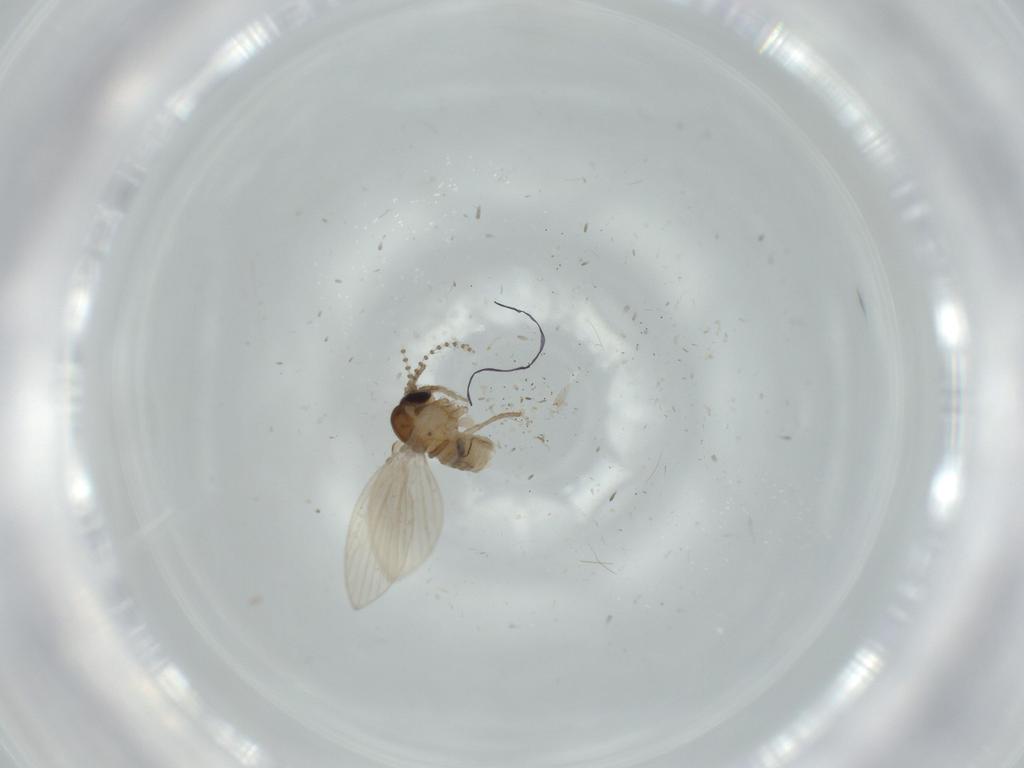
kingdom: Animalia
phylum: Arthropoda
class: Insecta
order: Diptera
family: Psychodidae
